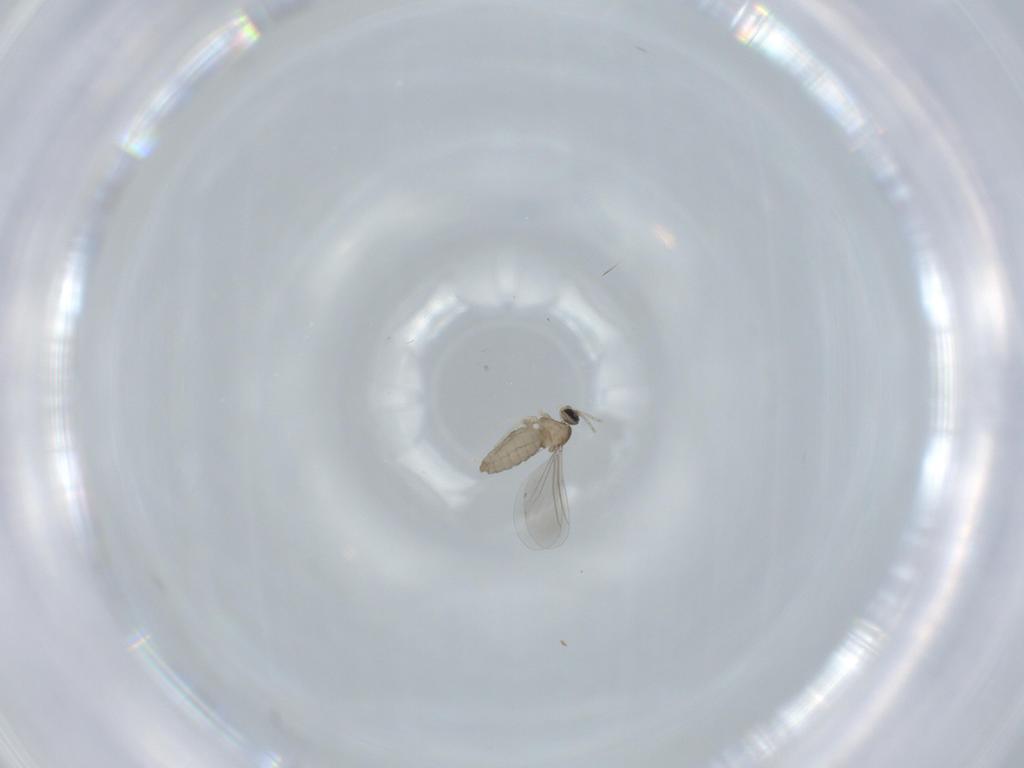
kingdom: Animalia
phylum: Arthropoda
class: Insecta
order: Diptera
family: Cecidomyiidae
